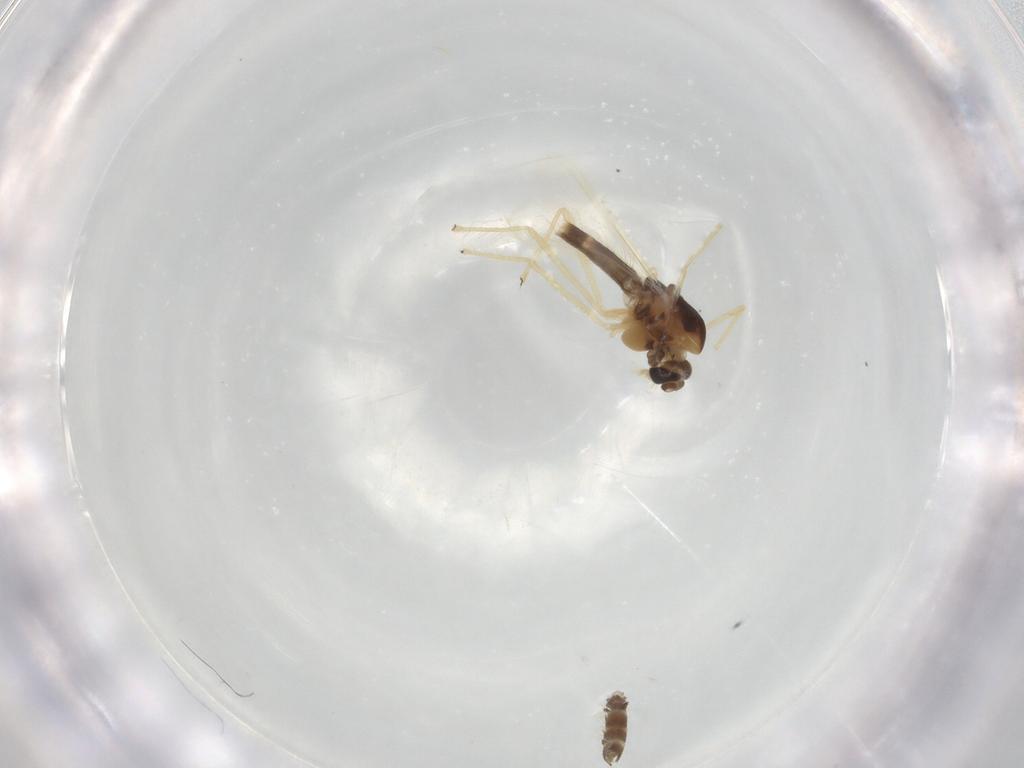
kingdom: Animalia
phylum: Arthropoda
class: Insecta
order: Diptera
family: Chironomidae
